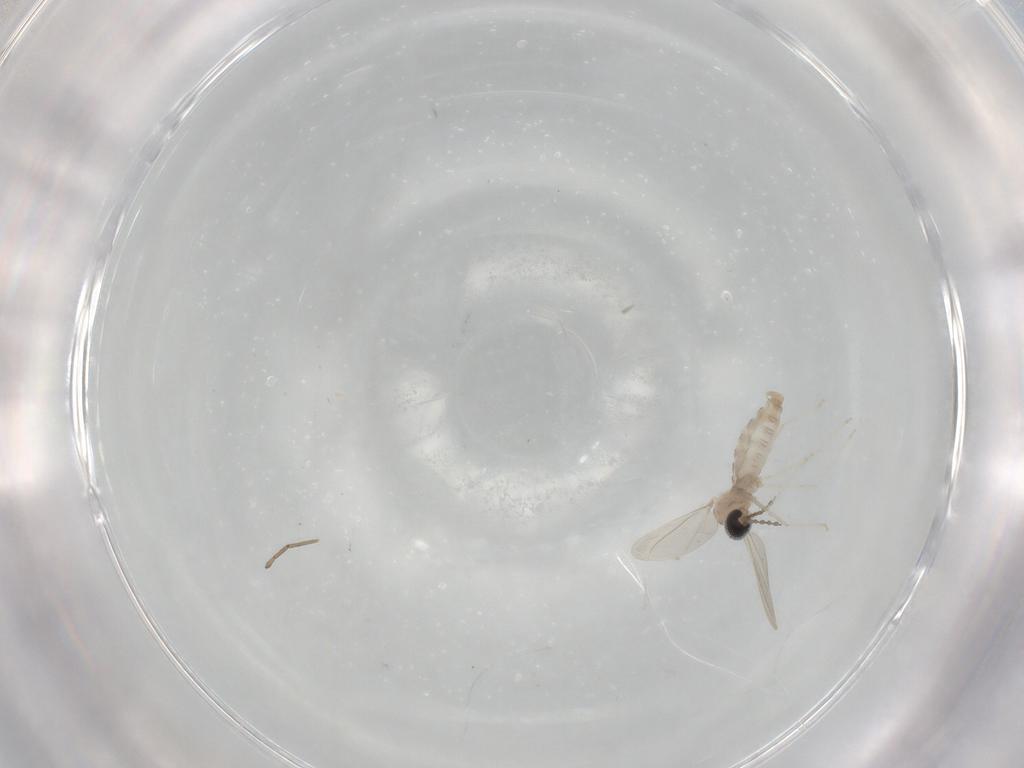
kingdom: Animalia
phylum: Arthropoda
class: Insecta
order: Diptera
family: Cecidomyiidae
